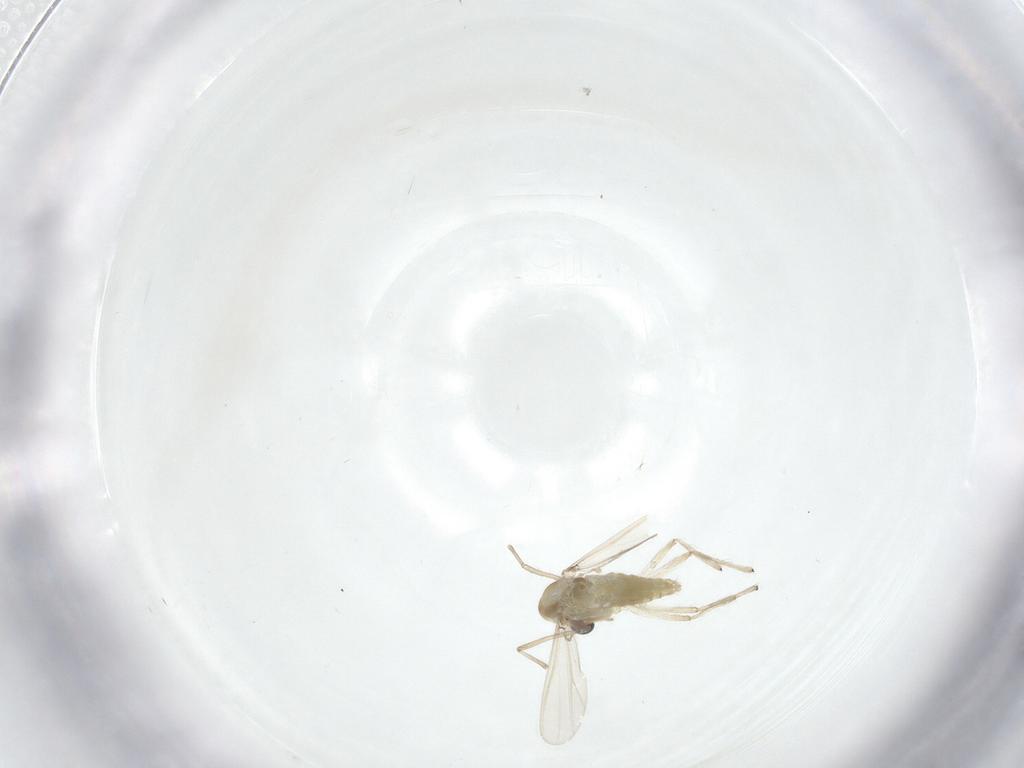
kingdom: Animalia
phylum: Arthropoda
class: Insecta
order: Diptera
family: Chironomidae
